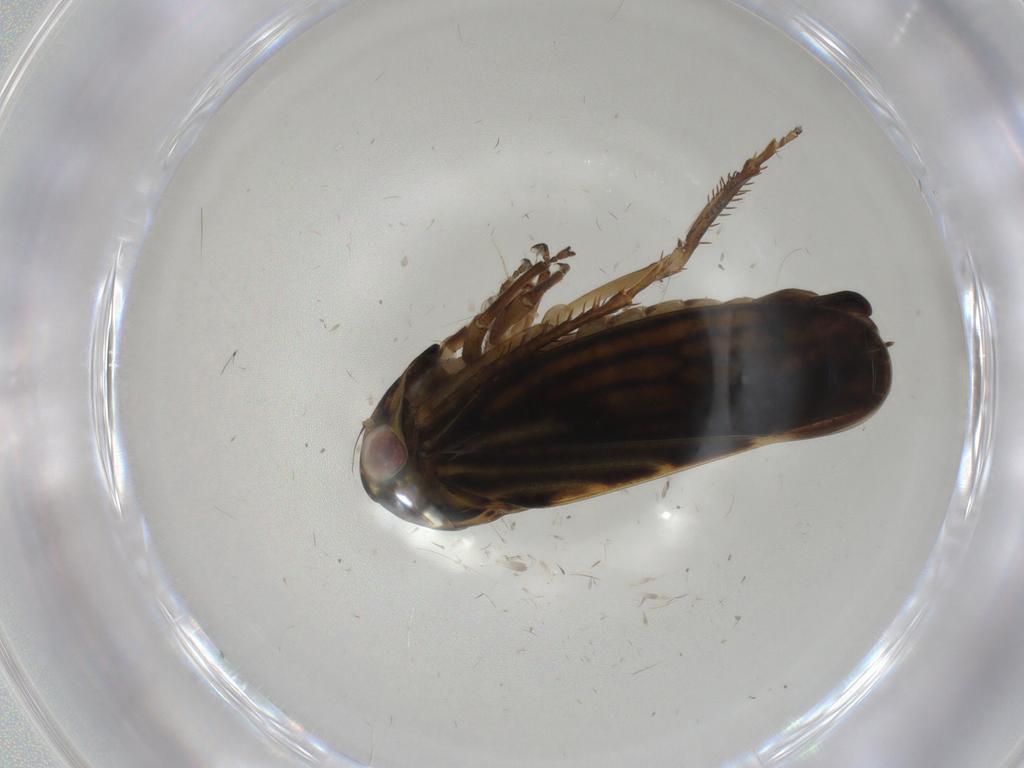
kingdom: Animalia
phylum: Arthropoda
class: Insecta
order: Hemiptera
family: Cicadellidae
